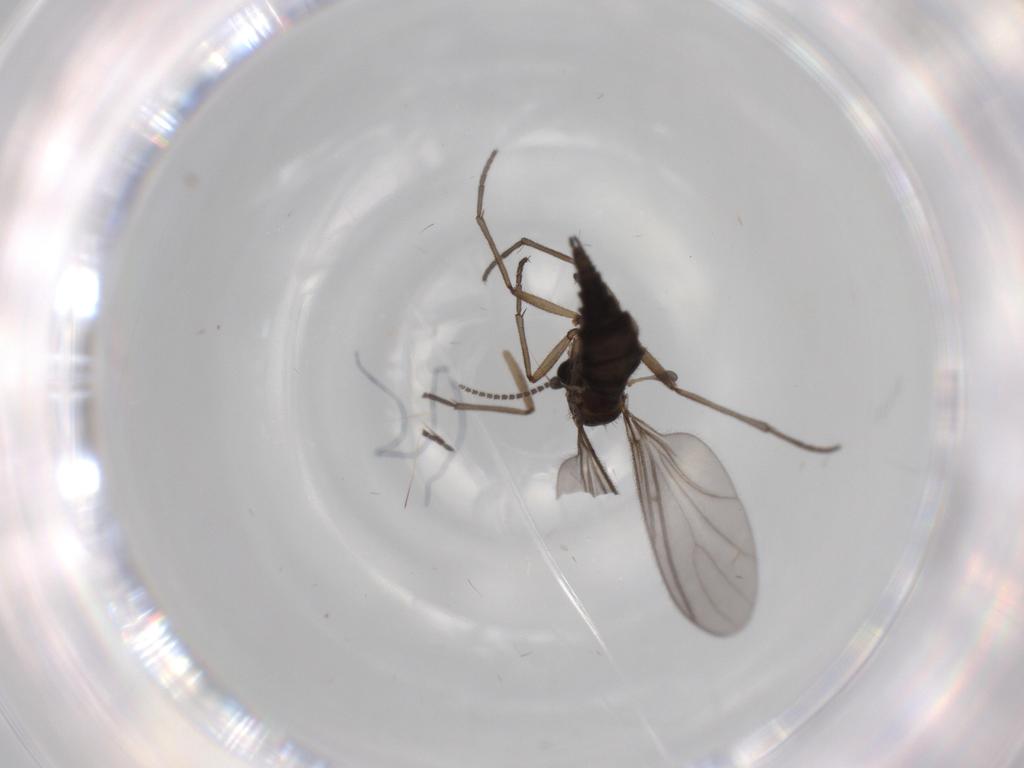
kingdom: Animalia
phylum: Arthropoda
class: Insecta
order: Diptera
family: Sciaridae
